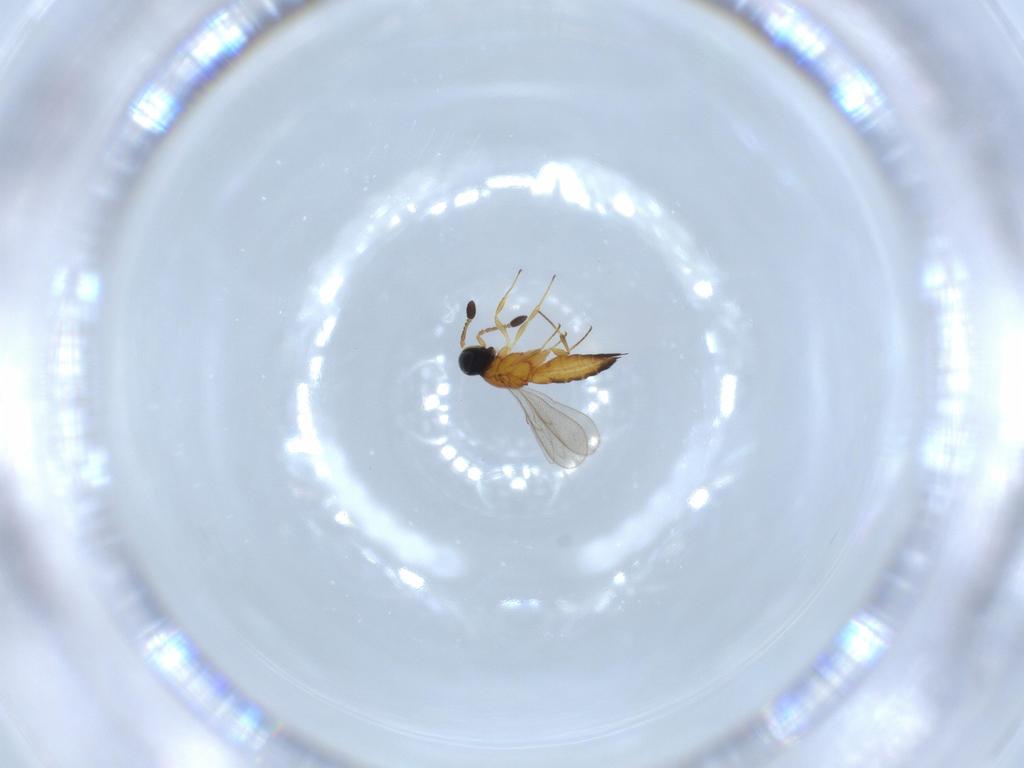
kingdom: Animalia
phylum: Arthropoda
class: Insecta
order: Hymenoptera
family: Scelionidae
